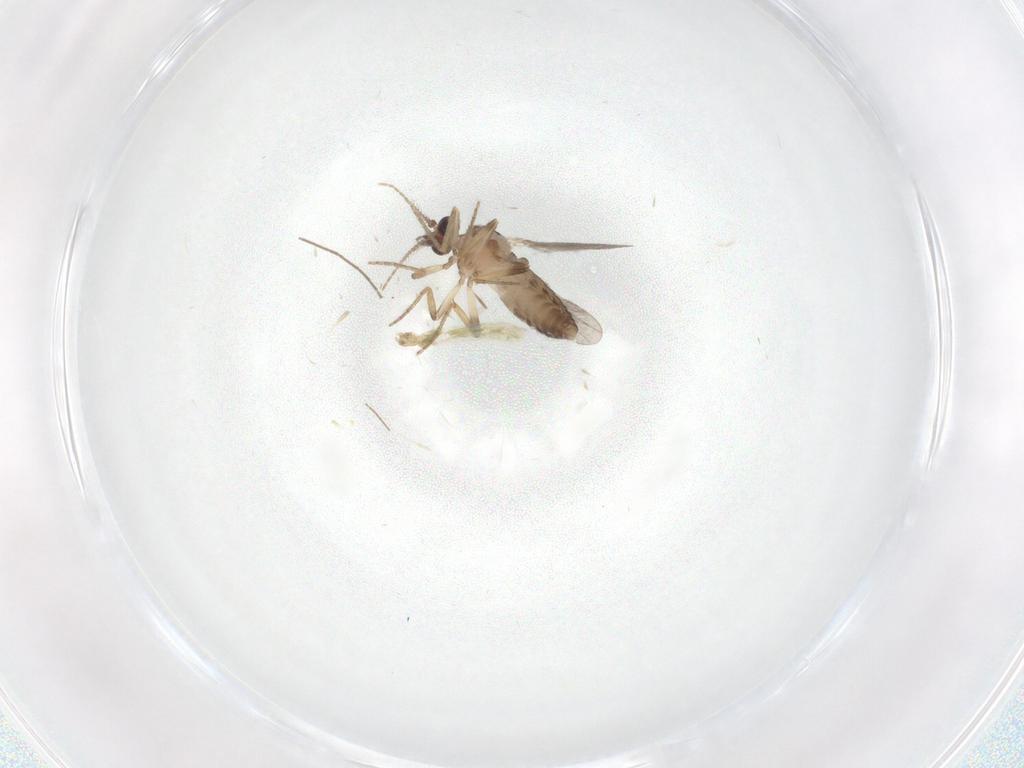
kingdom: Animalia
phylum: Arthropoda
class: Insecta
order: Diptera
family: Ceratopogonidae
